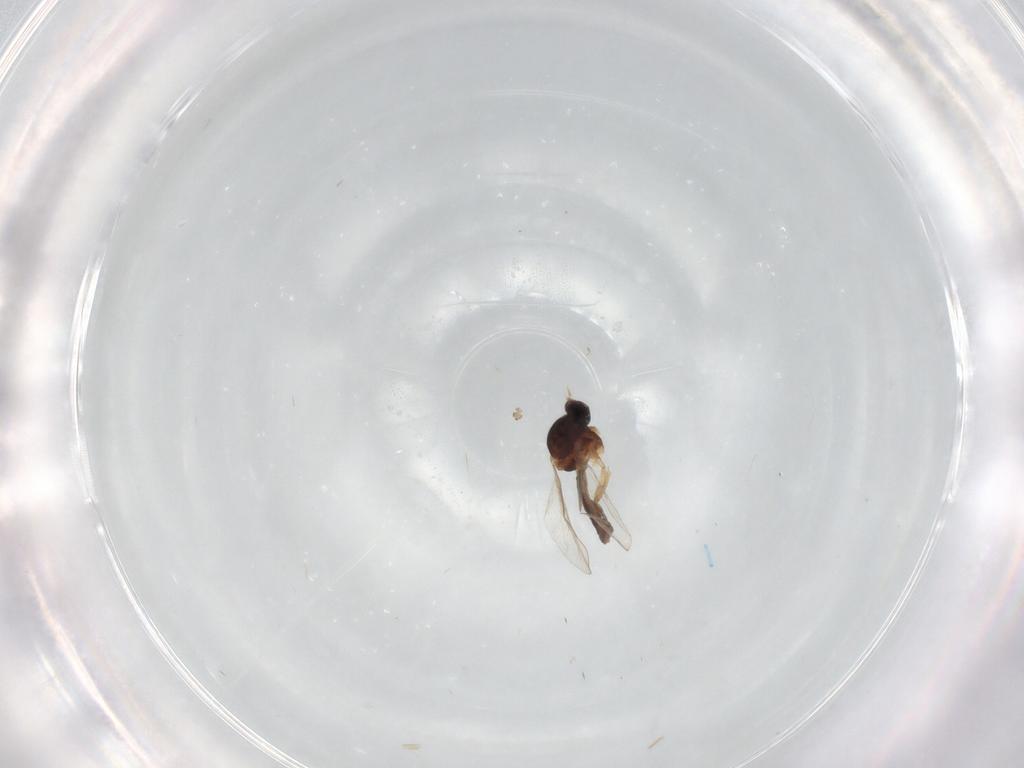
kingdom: Animalia
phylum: Arthropoda
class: Insecta
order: Diptera
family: Ceratopogonidae
